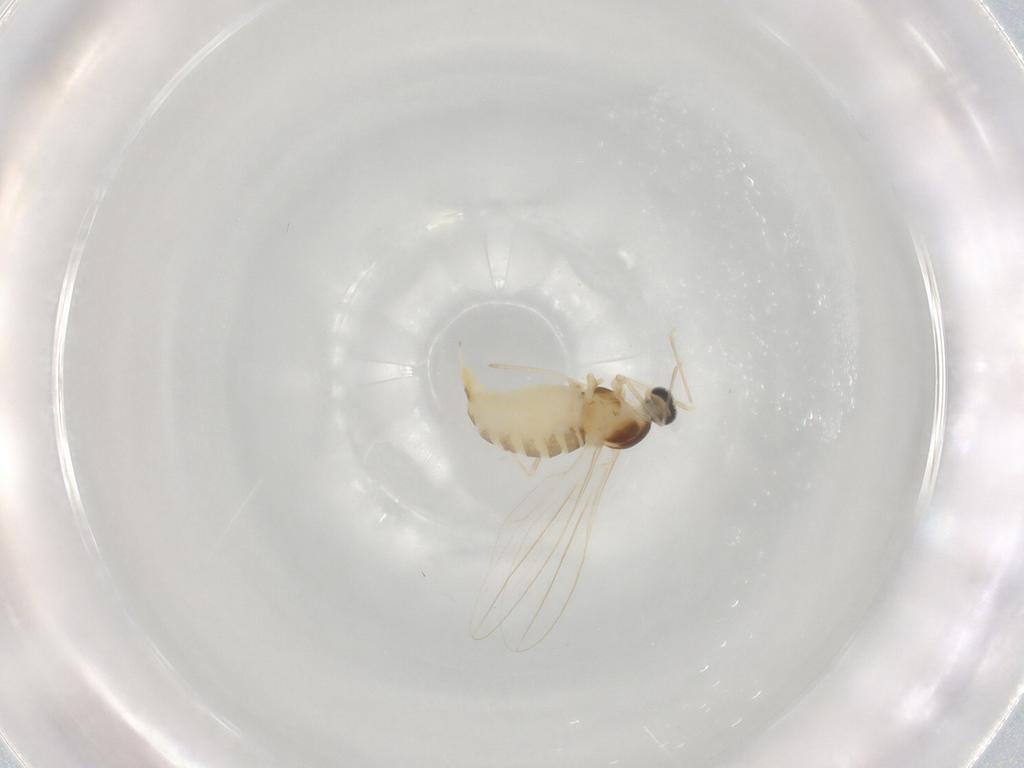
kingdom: Animalia
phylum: Arthropoda
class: Insecta
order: Diptera
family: Cecidomyiidae
